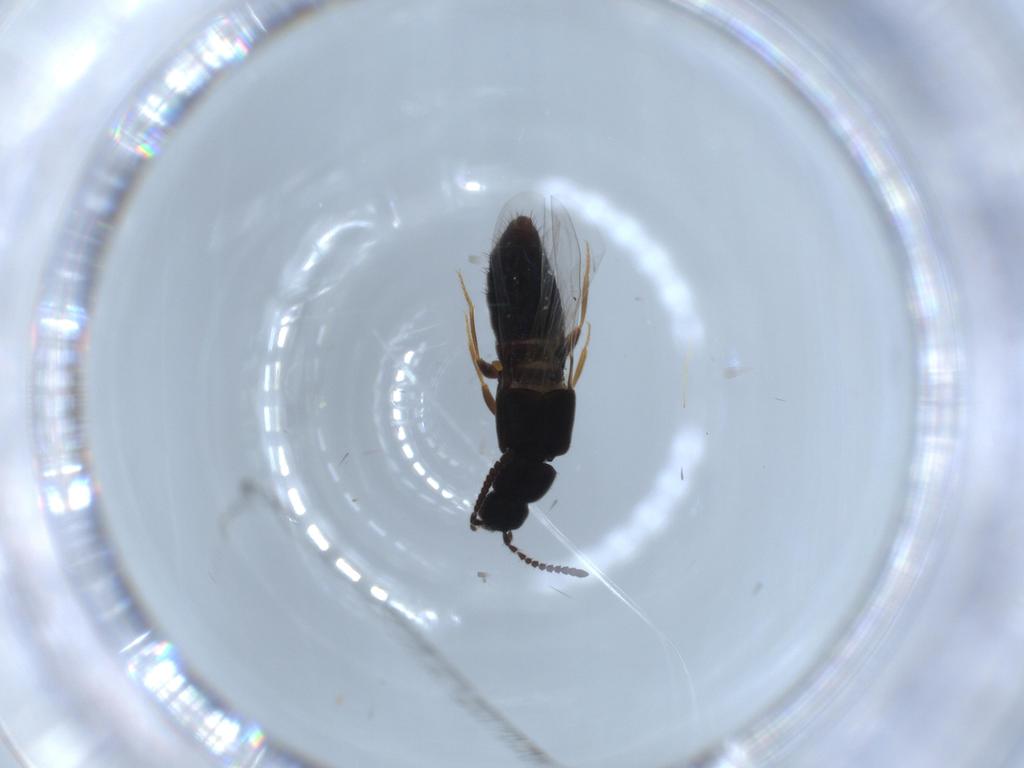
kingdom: Animalia
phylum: Arthropoda
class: Insecta
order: Coleoptera
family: Staphylinidae
